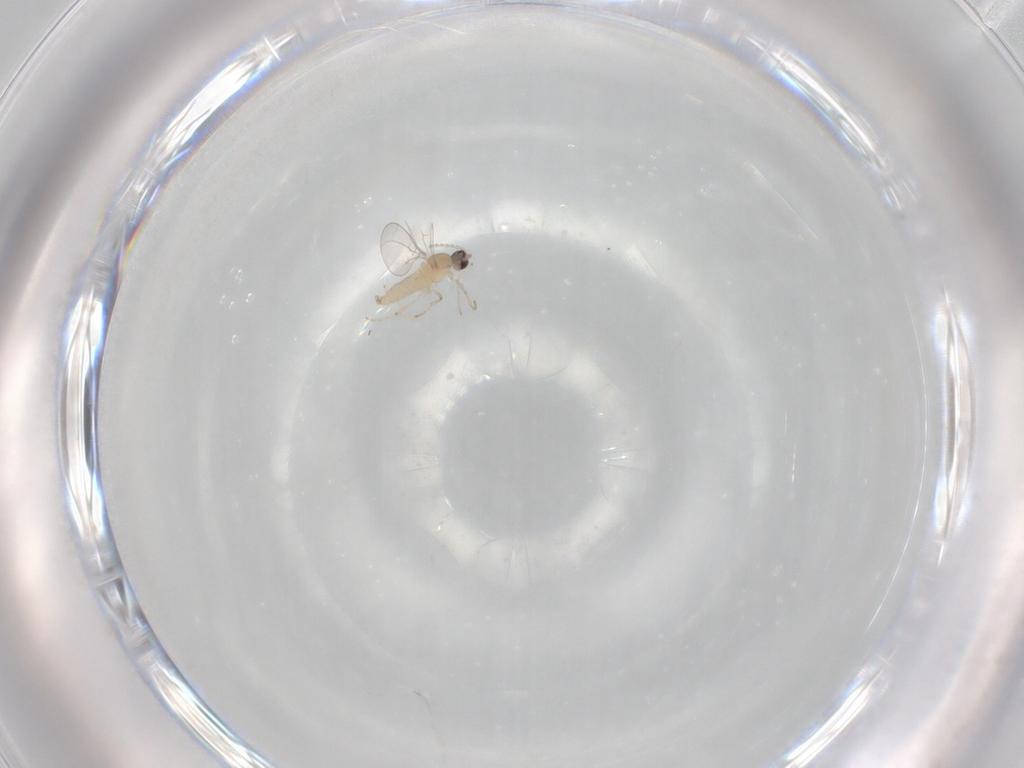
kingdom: Animalia
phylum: Arthropoda
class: Insecta
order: Diptera
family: Cecidomyiidae
